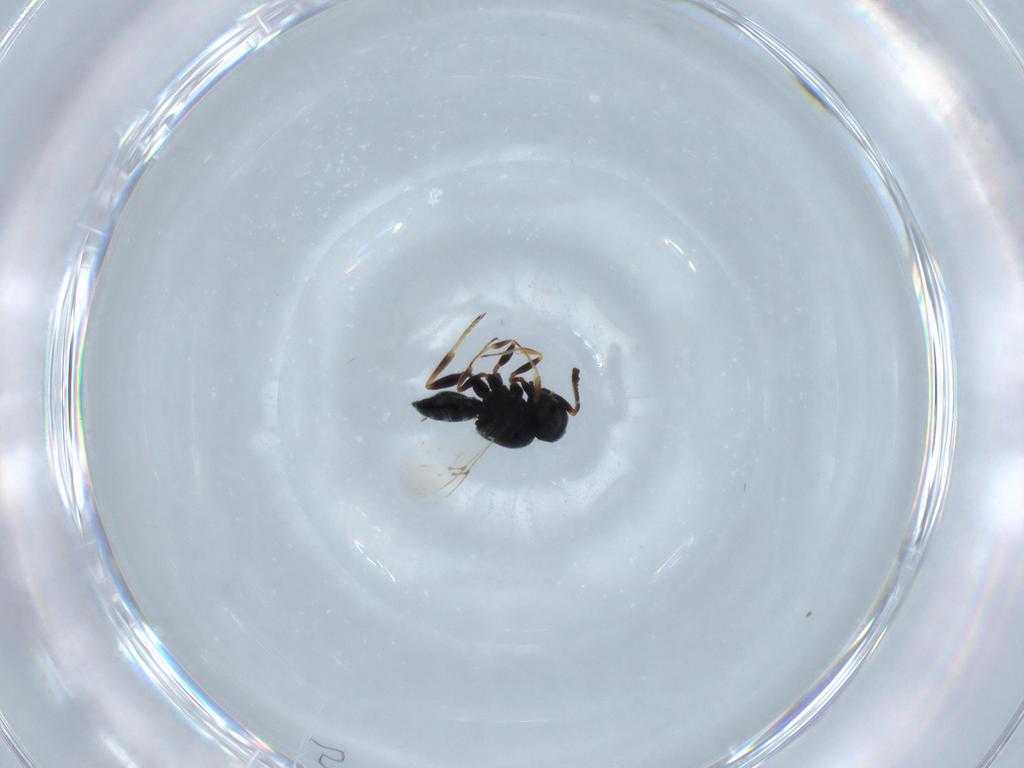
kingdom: Animalia
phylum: Arthropoda
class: Insecta
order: Hymenoptera
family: Scelionidae
